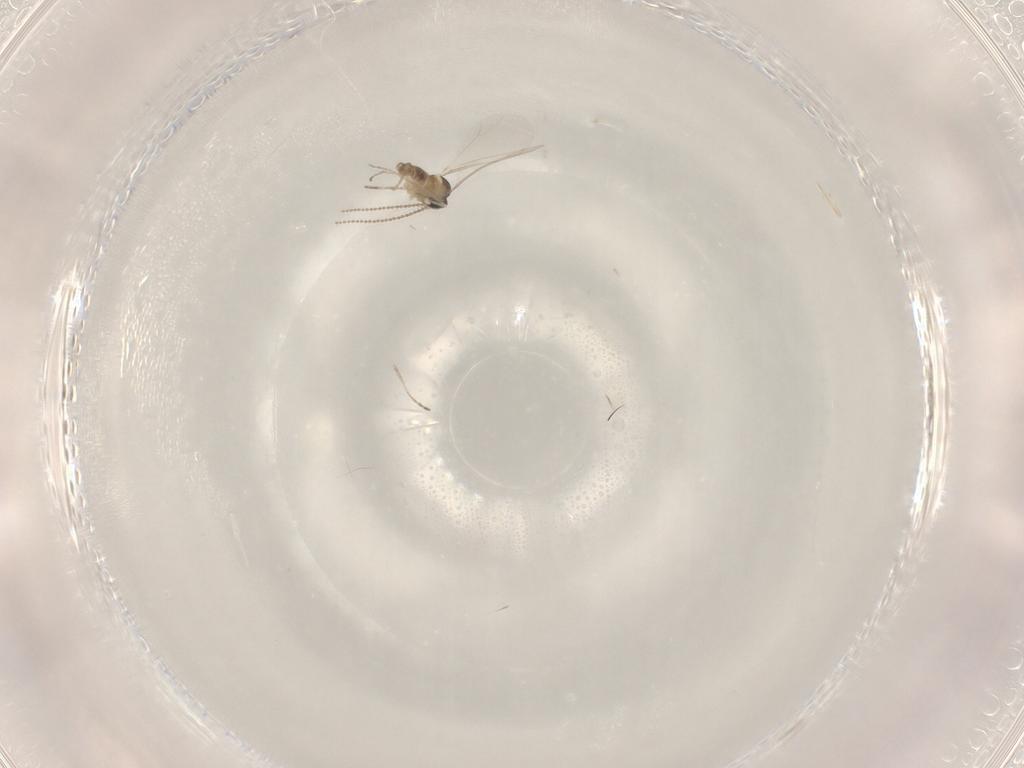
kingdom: Animalia
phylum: Arthropoda
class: Insecta
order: Diptera
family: Cecidomyiidae
